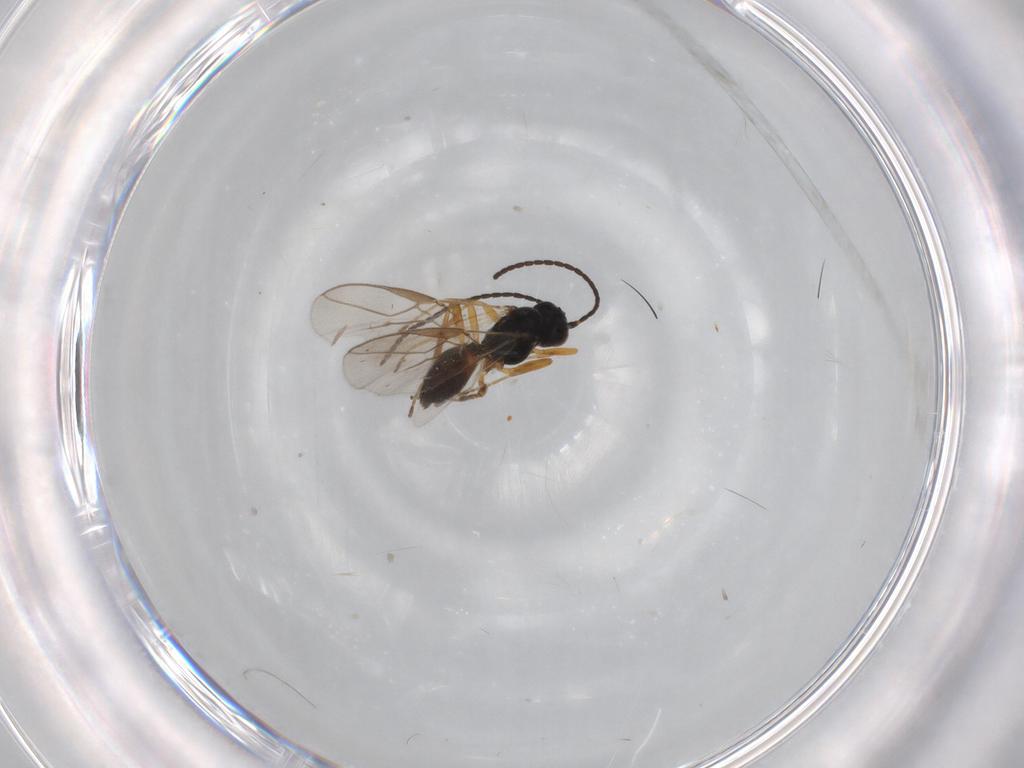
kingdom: Animalia
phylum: Arthropoda
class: Insecta
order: Hymenoptera
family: Braconidae
